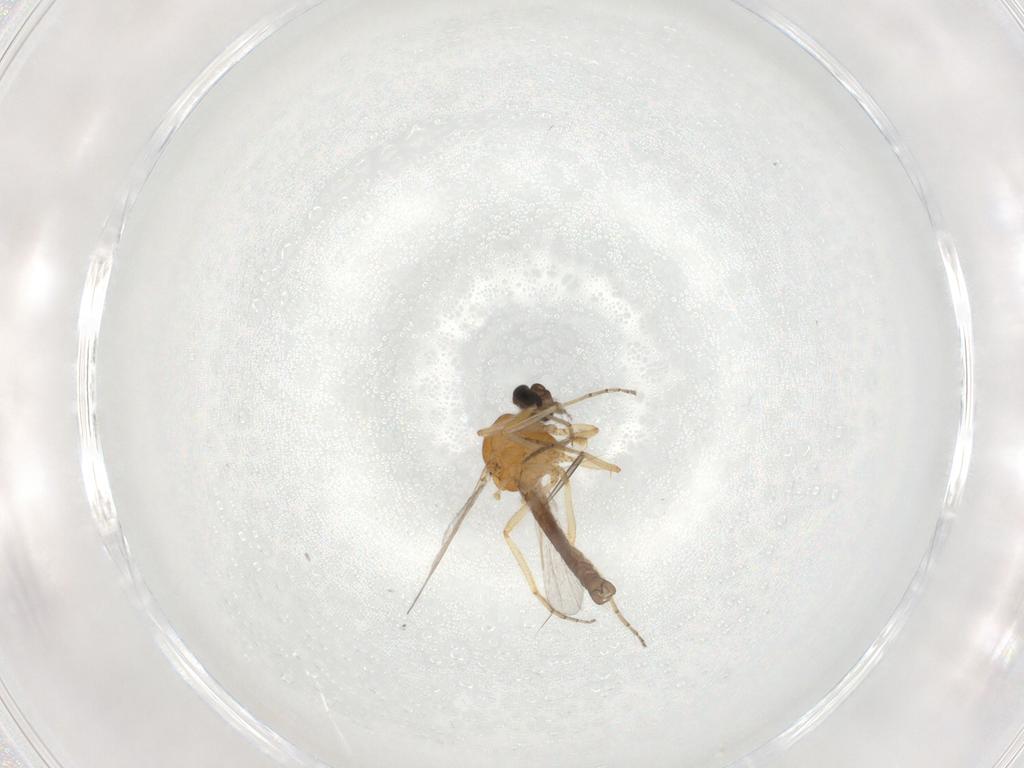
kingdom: Animalia
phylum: Arthropoda
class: Insecta
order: Diptera
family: Ceratopogonidae
